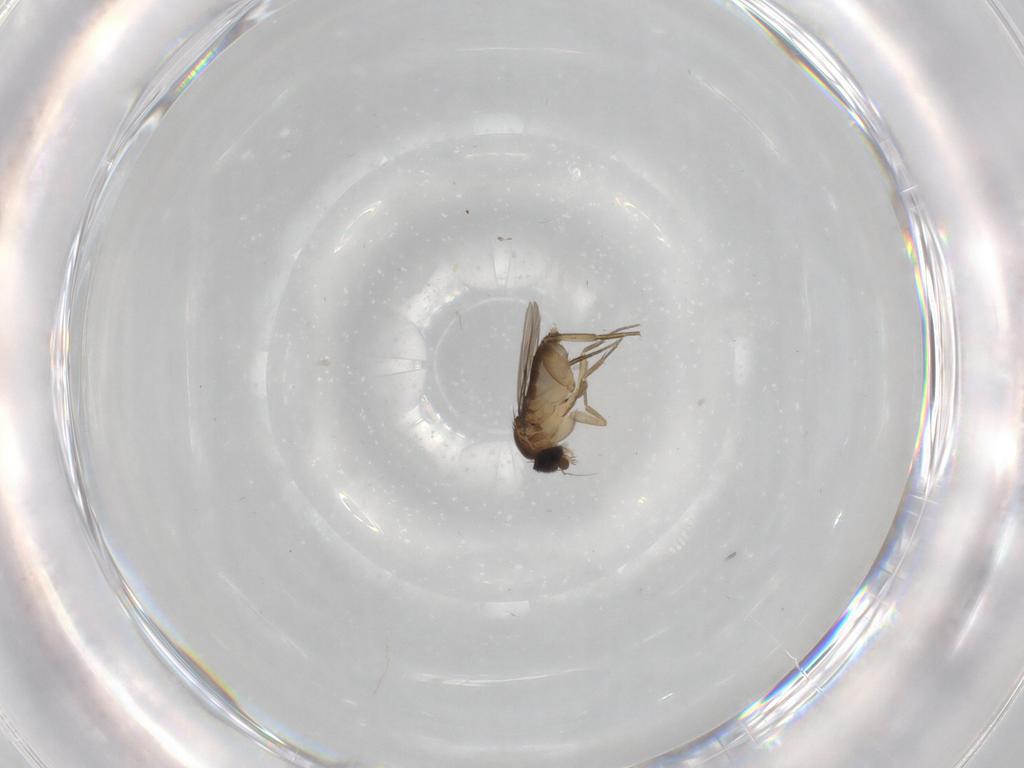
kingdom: Animalia
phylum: Arthropoda
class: Insecta
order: Diptera
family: Phoridae
